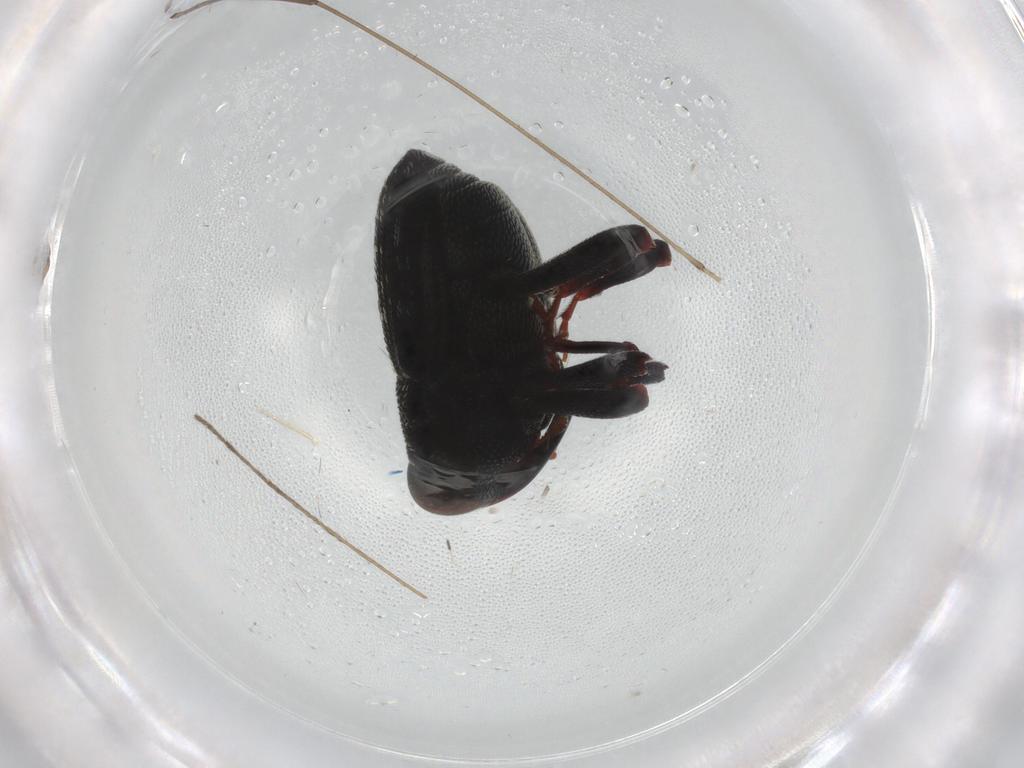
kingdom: Animalia
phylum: Arthropoda
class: Insecta
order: Coleoptera
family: Curculionidae
